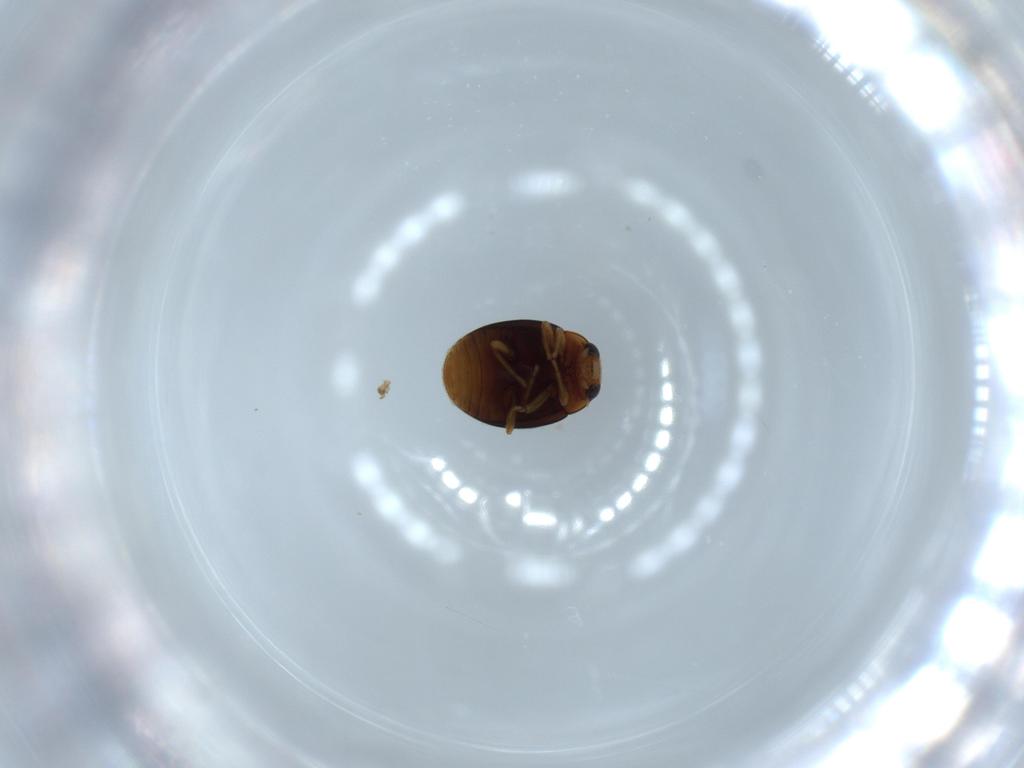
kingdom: Animalia
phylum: Arthropoda
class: Insecta
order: Coleoptera
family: Coccinellidae
